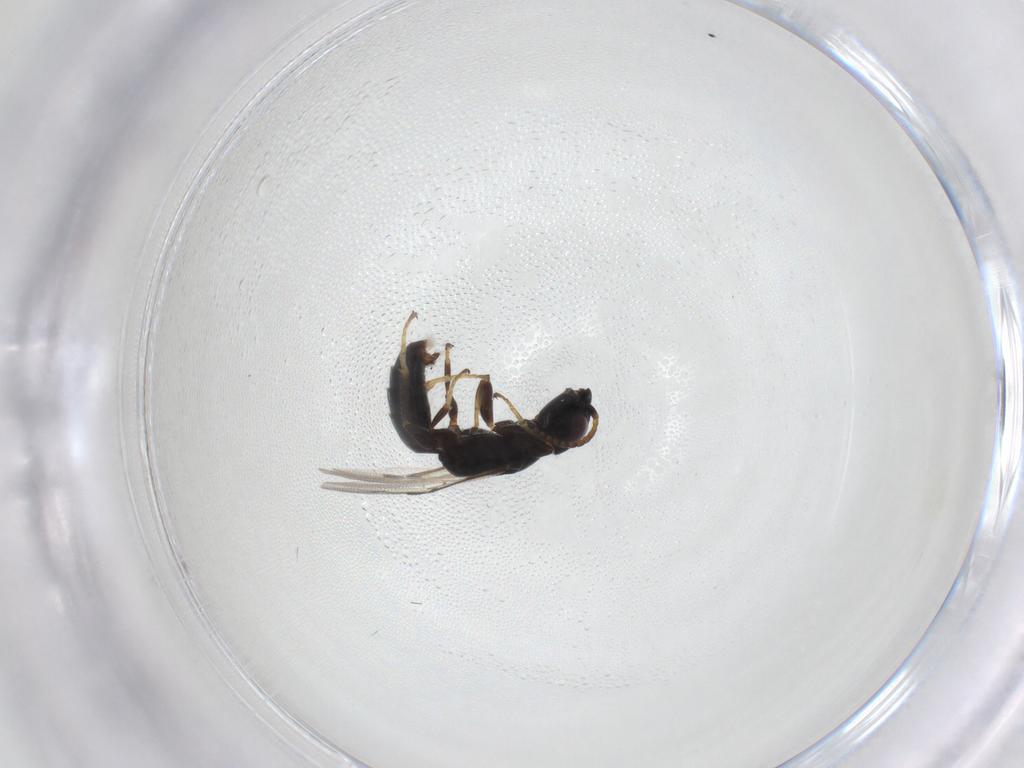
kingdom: Animalia
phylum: Arthropoda
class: Insecta
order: Hymenoptera
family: Bethylidae
